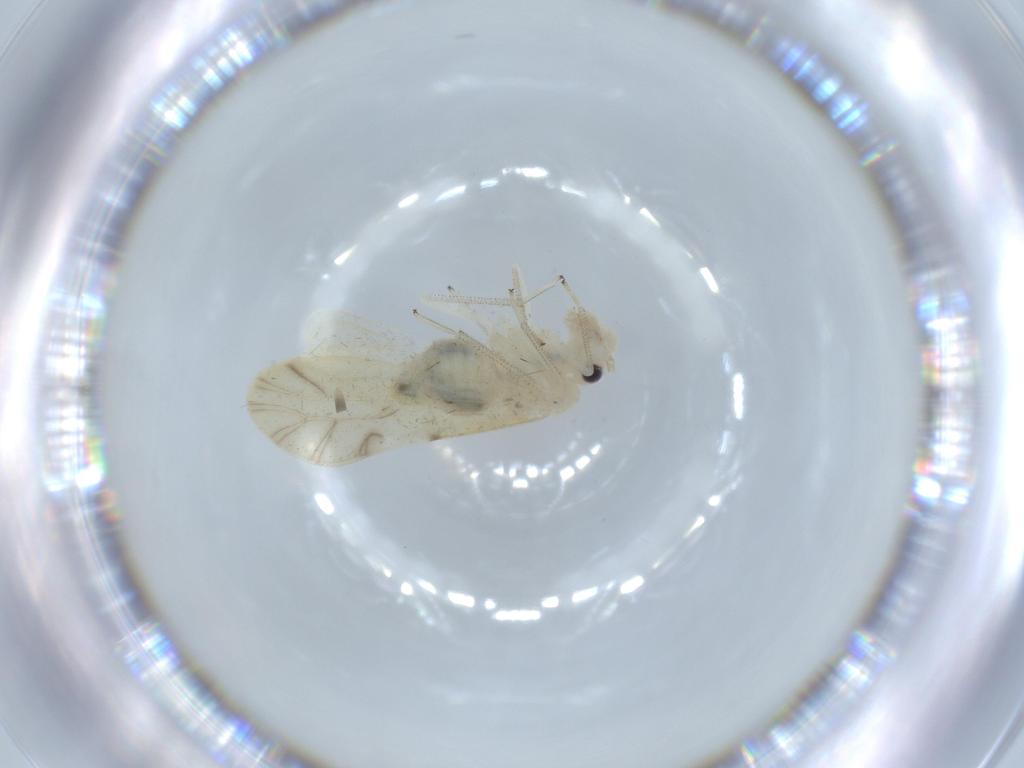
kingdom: Animalia
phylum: Arthropoda
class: Insecta
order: Psocodea
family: Caeciliusidae
